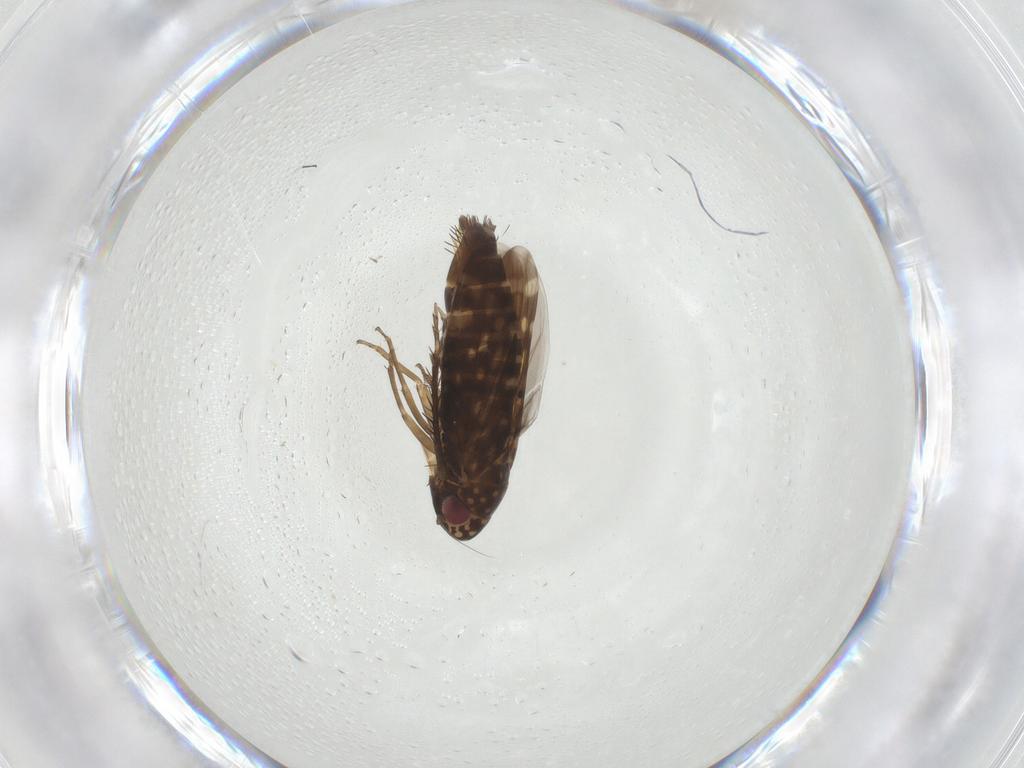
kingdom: Animalia
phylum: Arthropoda
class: Insecta
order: Hemiptera
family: Cicadellidae
